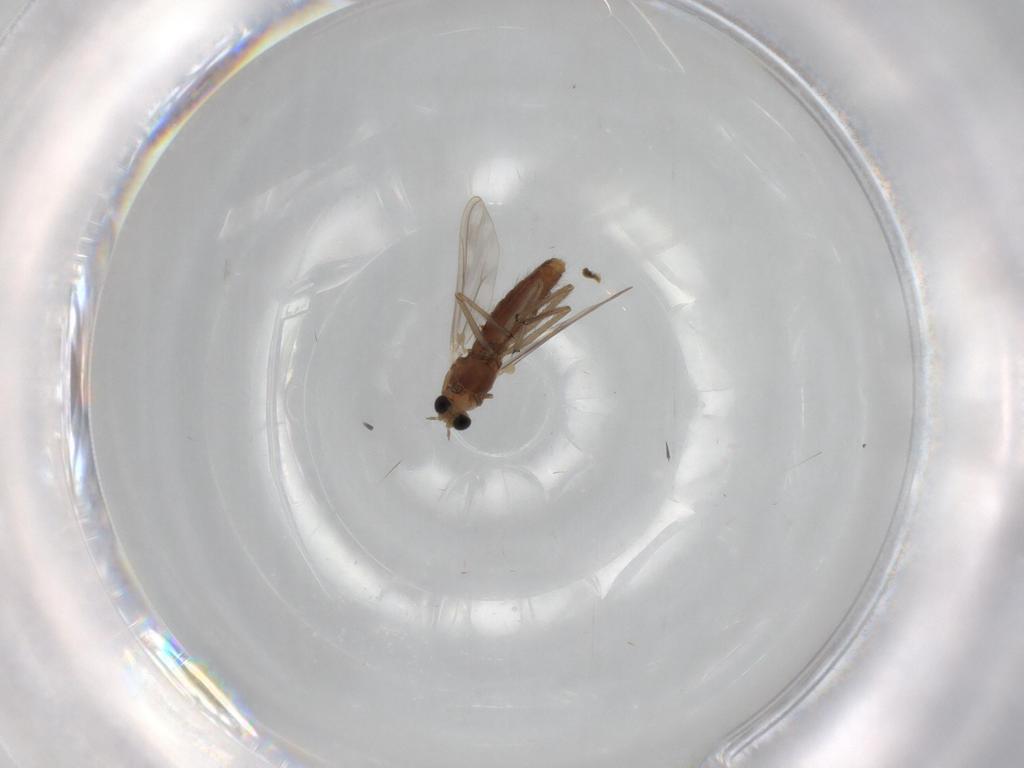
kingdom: Animalia
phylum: Arthropoda
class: Insecta
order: Diptera
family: Chironomidae
